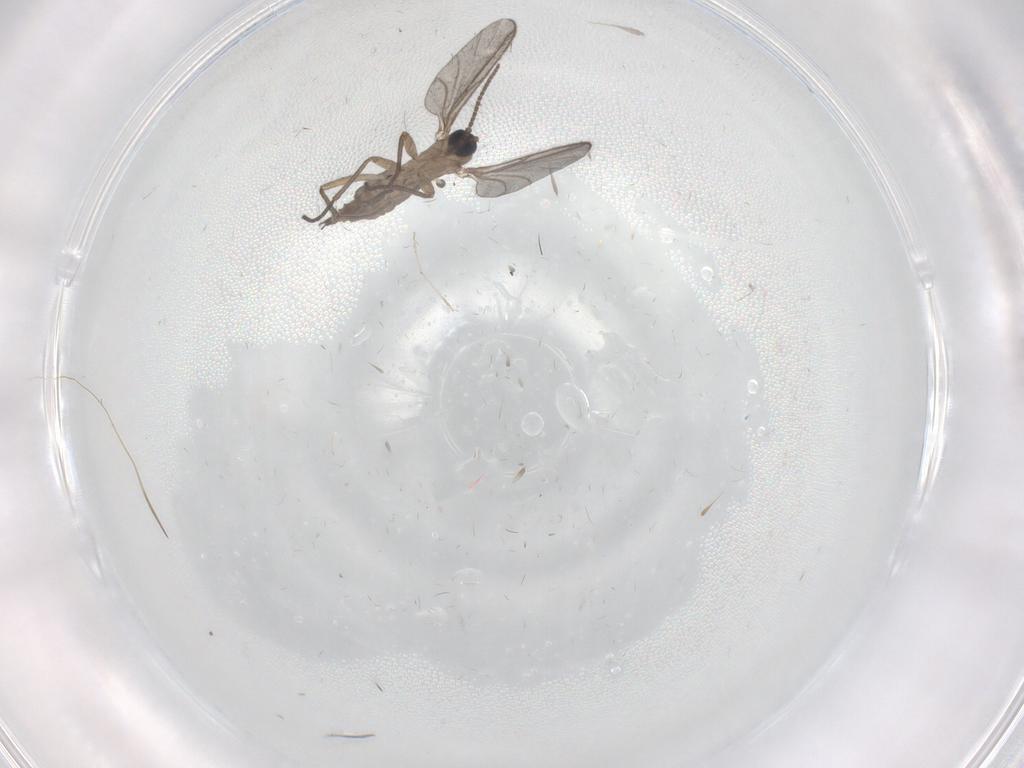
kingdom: Animalia
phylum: Arthropoda
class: Insecta
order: Diptera
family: Cecidomyiidae
